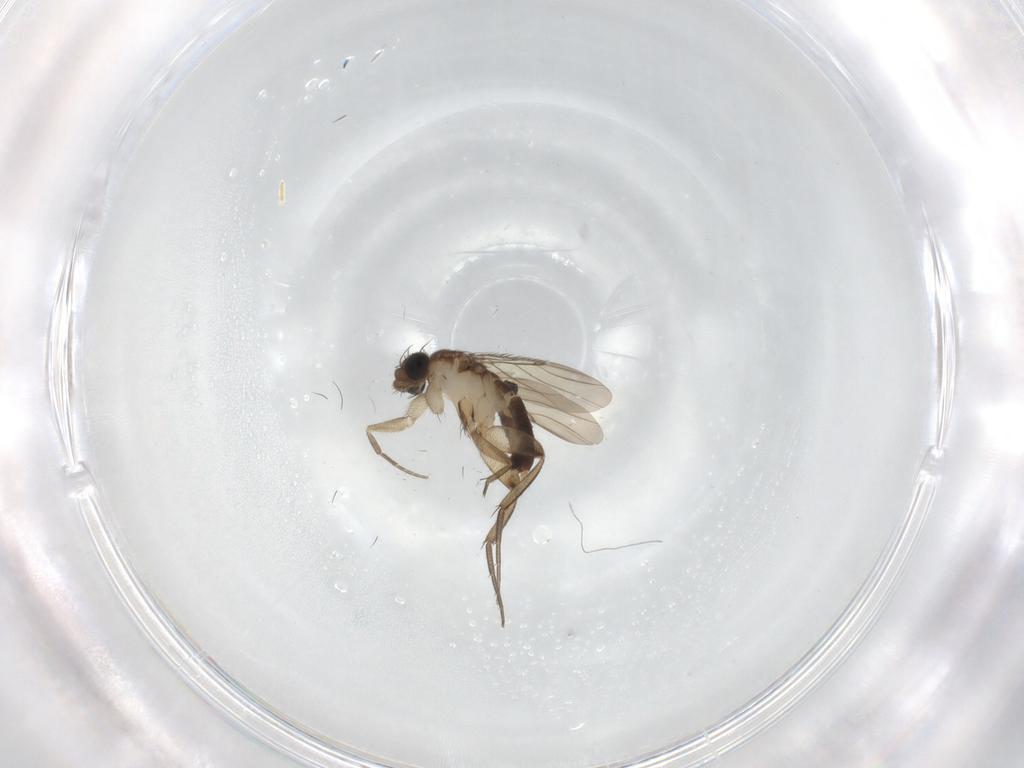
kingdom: Animalia
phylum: Arthropoda
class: Insecta
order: Diptera
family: Phoridae
